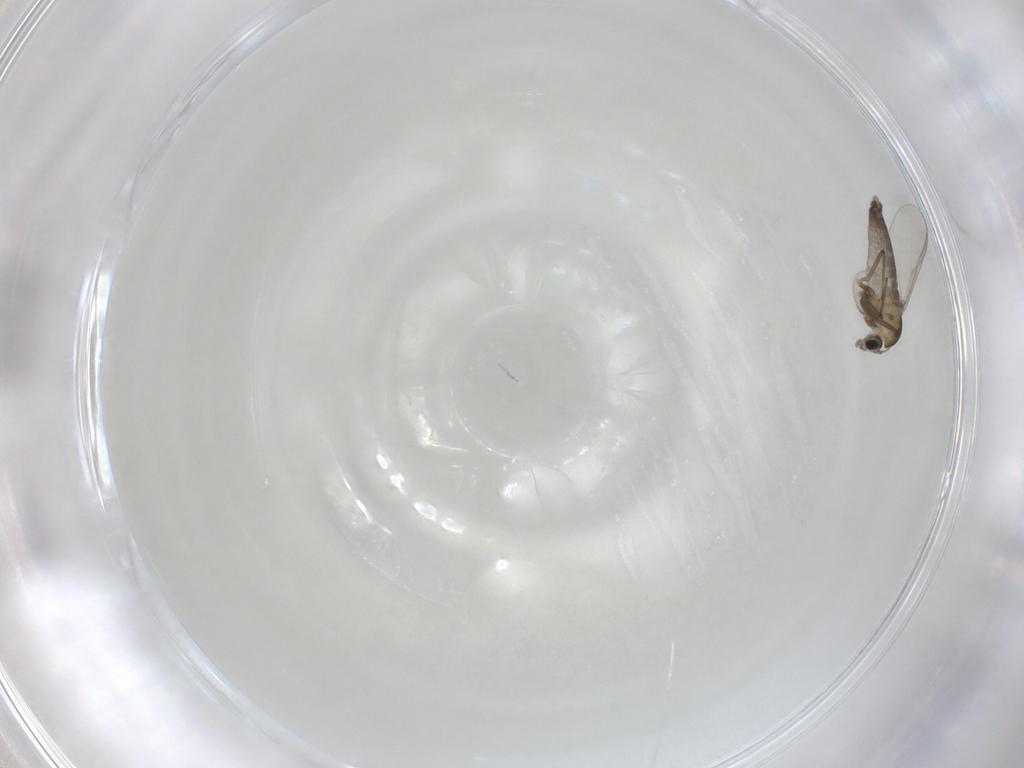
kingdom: Animalia
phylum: Arthropoda
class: Insecta
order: Diptera
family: Chironomidae
